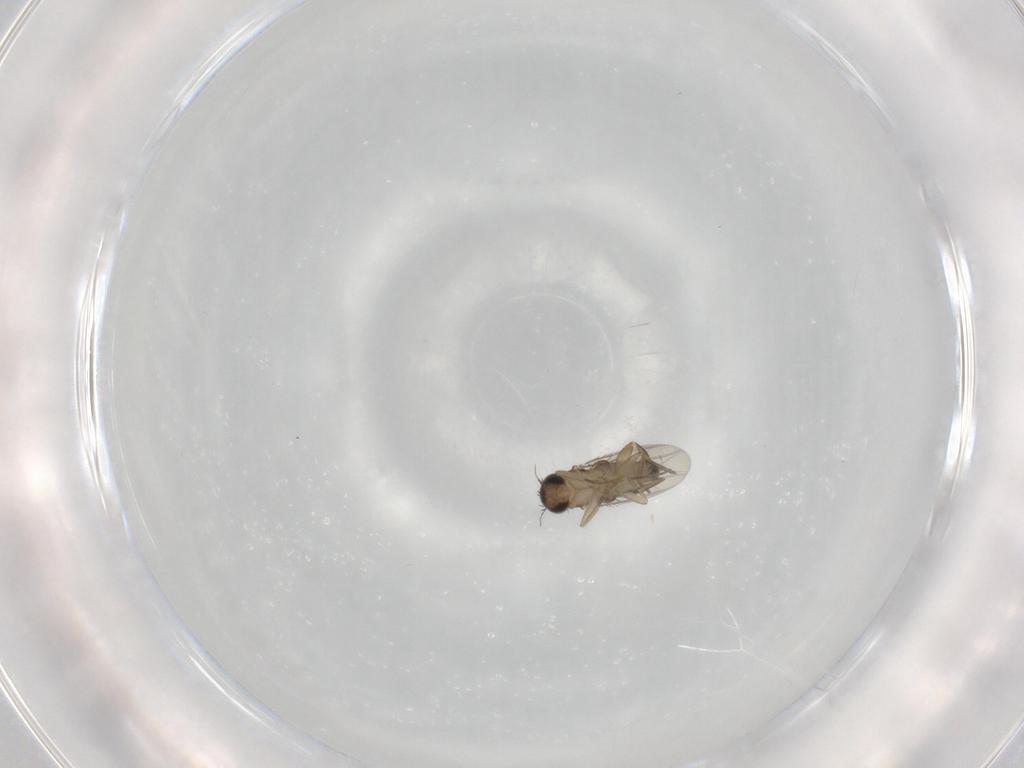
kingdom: Animalia
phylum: Arthropoda
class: Insecta
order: Diptera
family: Phoridae
